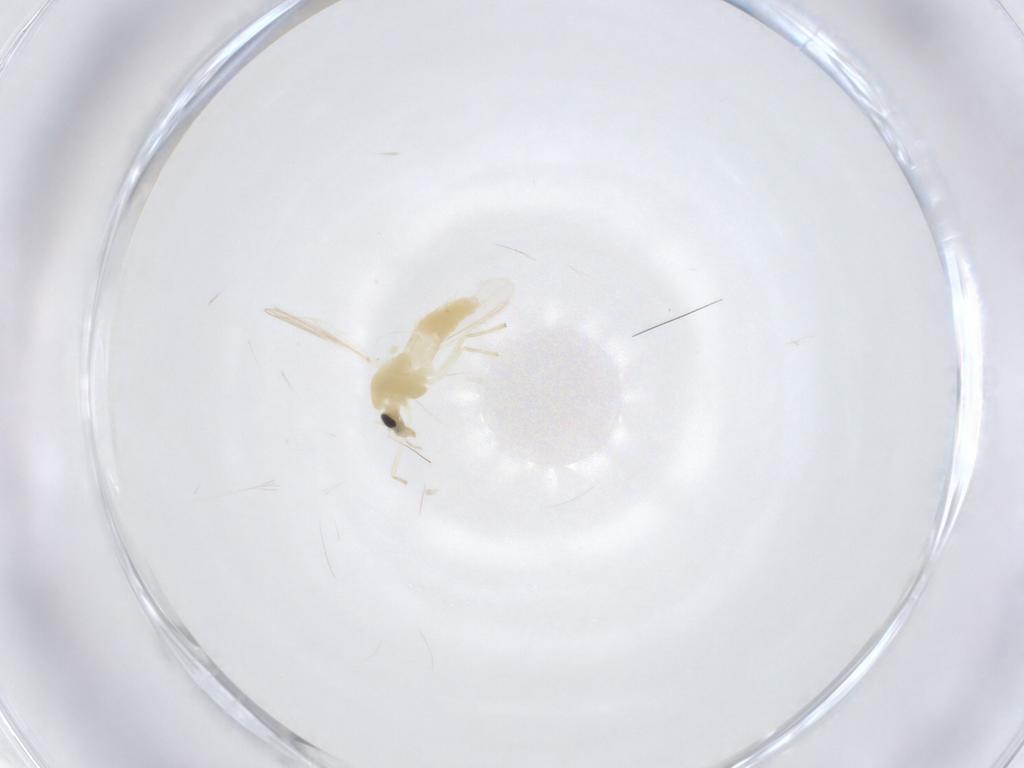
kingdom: Animalia
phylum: Arthropoda
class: Insecta
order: Diptera
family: Chironomidae
